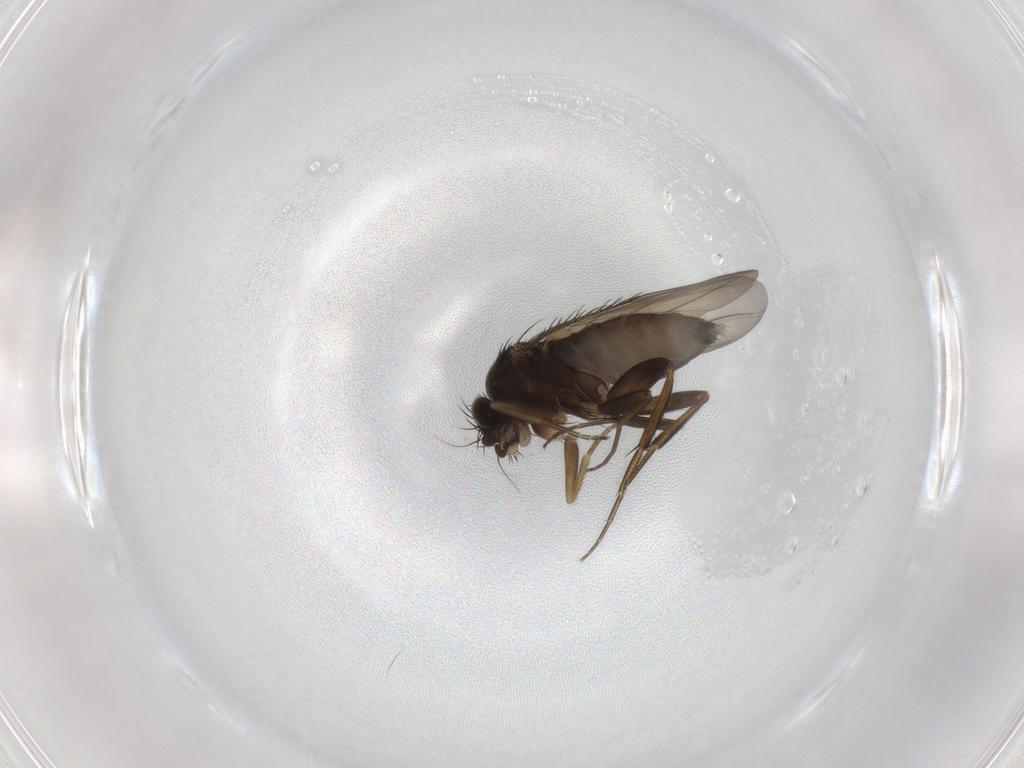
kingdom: Animalia
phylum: Arthropoda
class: Insecta
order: Diptera
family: Phoridae
